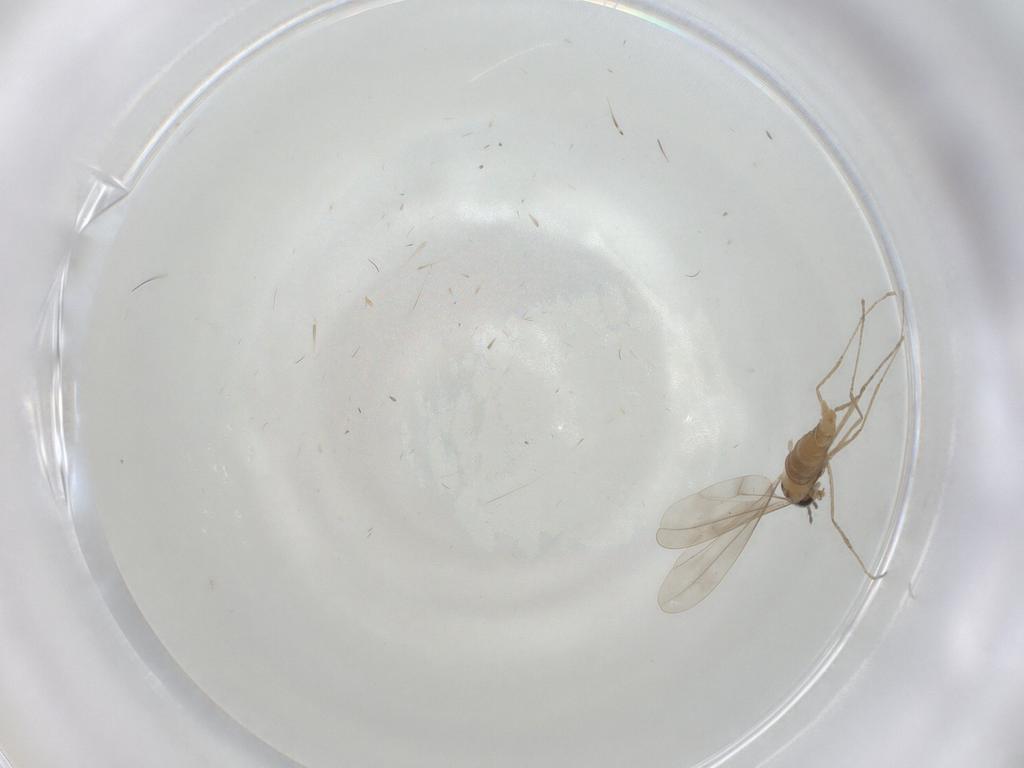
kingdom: Animalia
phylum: Arthropoda
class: Insecta
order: Diptera
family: Cecidomyiidae
